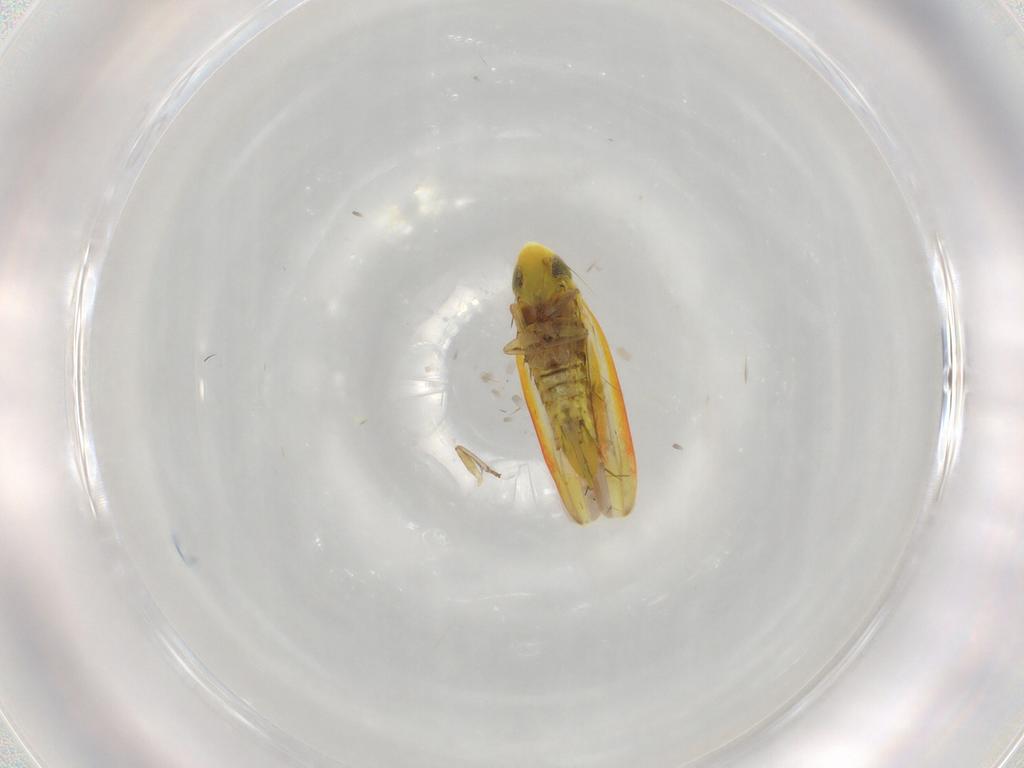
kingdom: Animalia
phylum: Arthropoda
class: Insecta
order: Hemiptera
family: Cicadellidae
